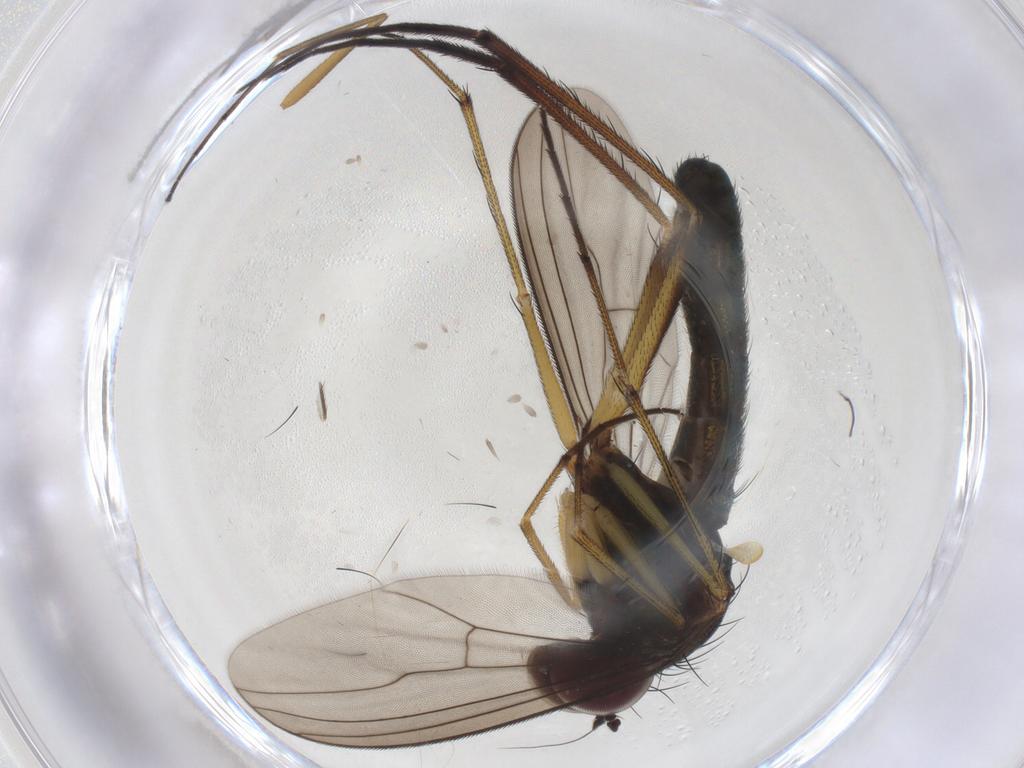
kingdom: Animalia
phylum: Arthropoda
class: Insecta
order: Diptera
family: Dolichopodidae
